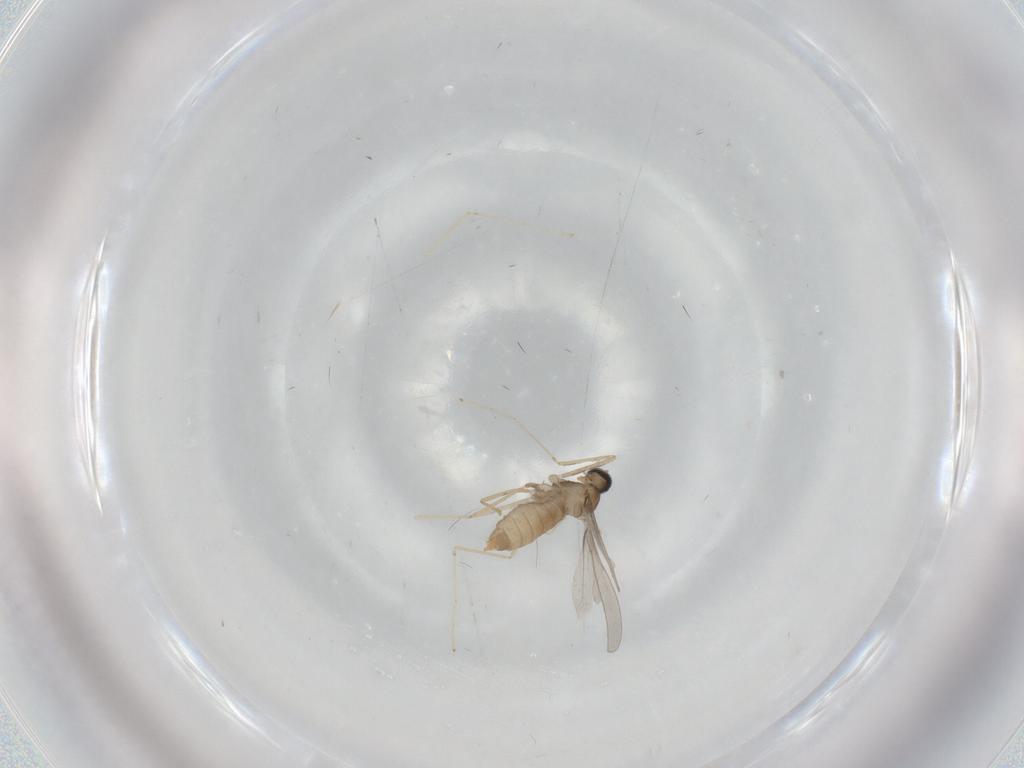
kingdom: Animalia
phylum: Arthropoda
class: Insecta
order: Diptera
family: Cecidomyiidae
